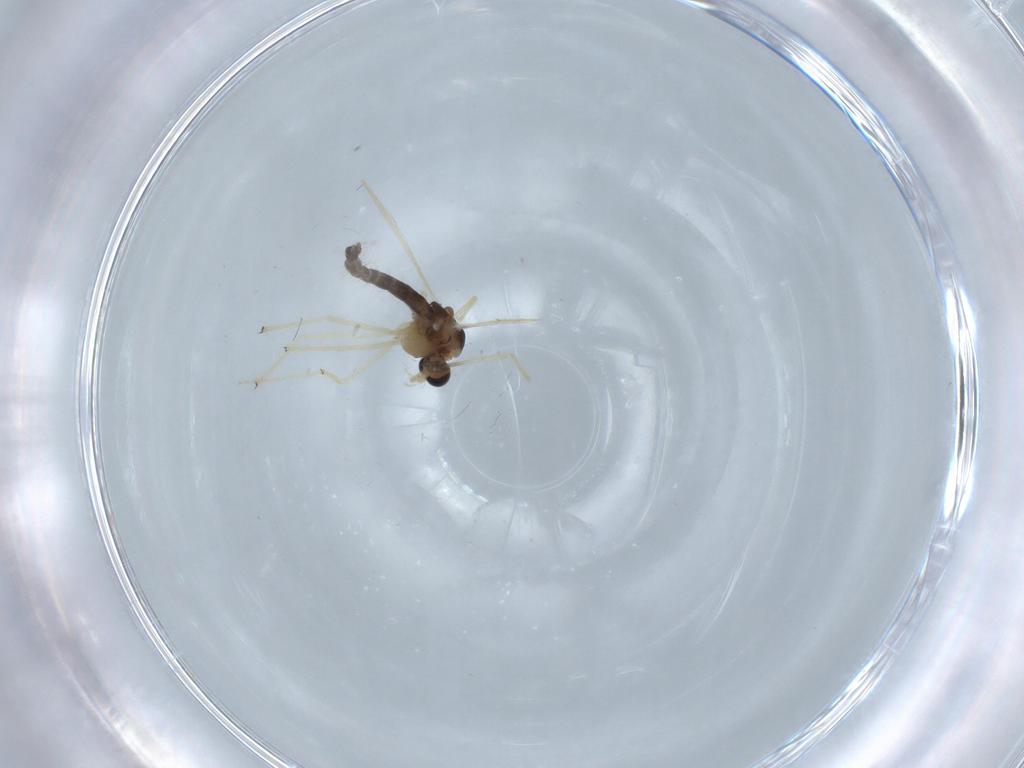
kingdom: Animalia
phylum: Arthropoda
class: Insecta
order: Diptera
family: Chironomidae
